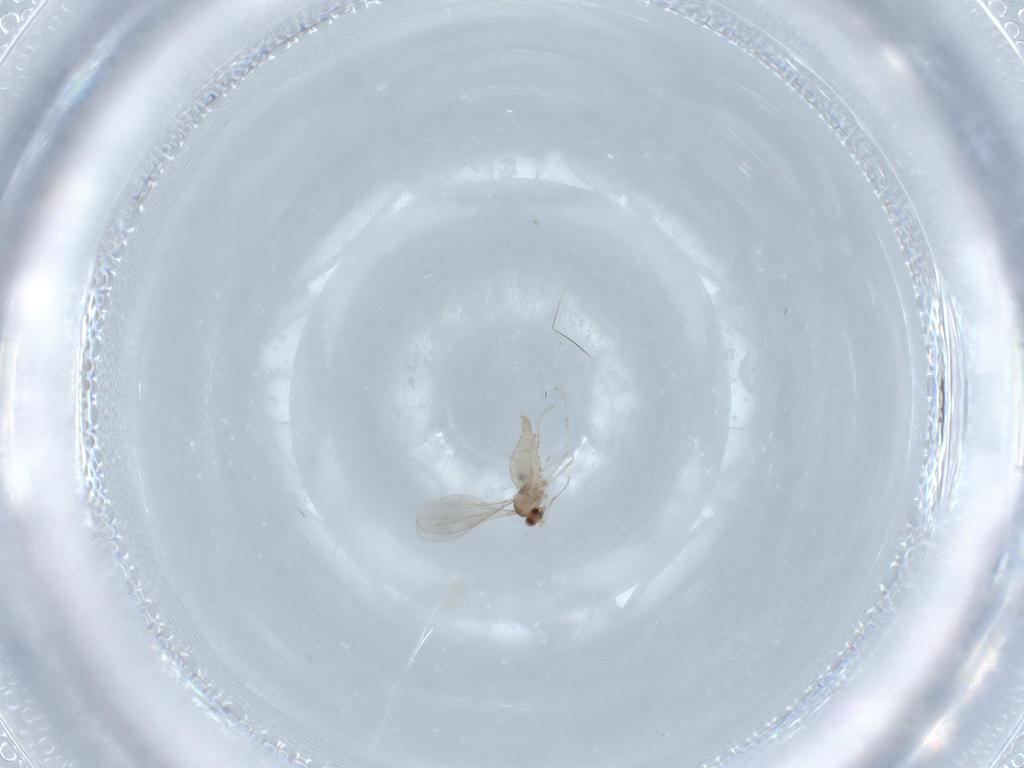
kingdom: Animalia
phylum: Arthropoda
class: Insecta
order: Diptera
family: Cecidomyiidae
